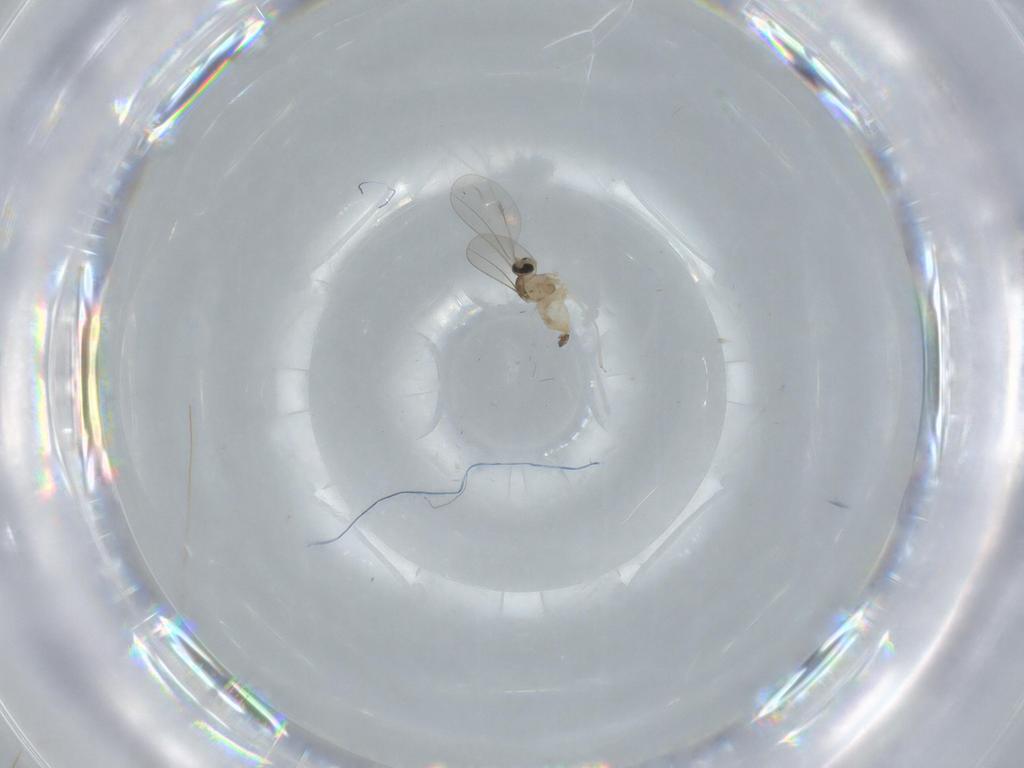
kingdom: Animalia
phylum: Arthropoda
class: Insecta
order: Diptera
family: Cecidomyiidae
